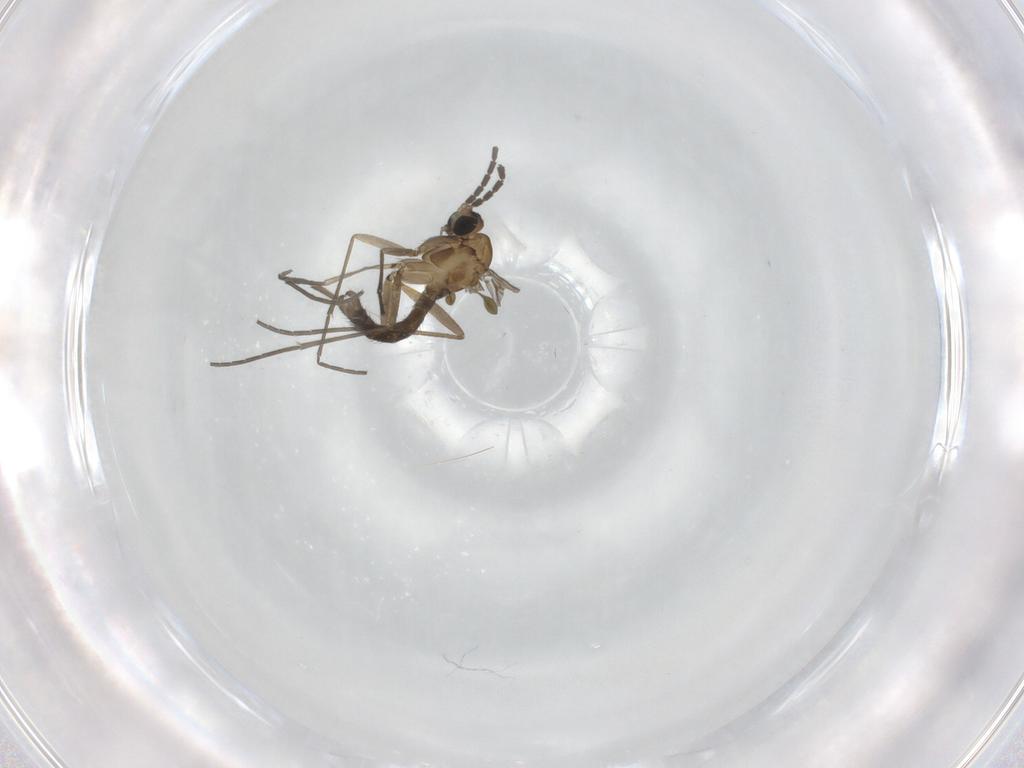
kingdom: Animalia
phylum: Arthropoda
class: Insecta
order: Diptera
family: Sciaridae
